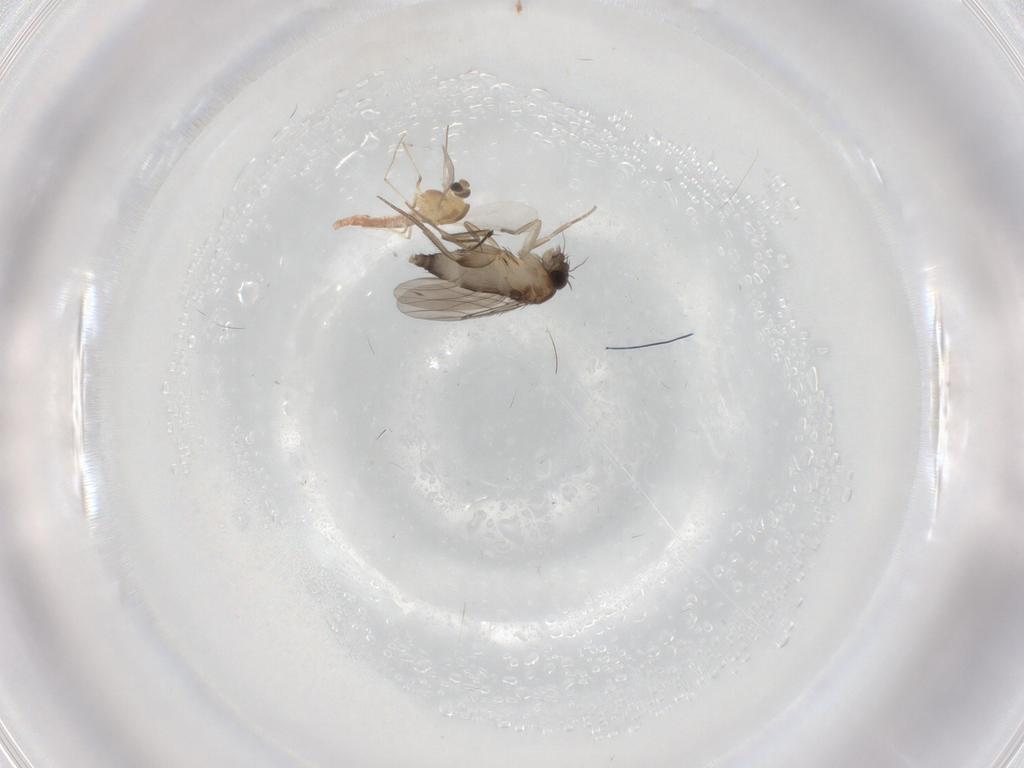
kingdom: Animalia
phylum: Arthropoda
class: Insecta
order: Diptera
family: Phoridae
